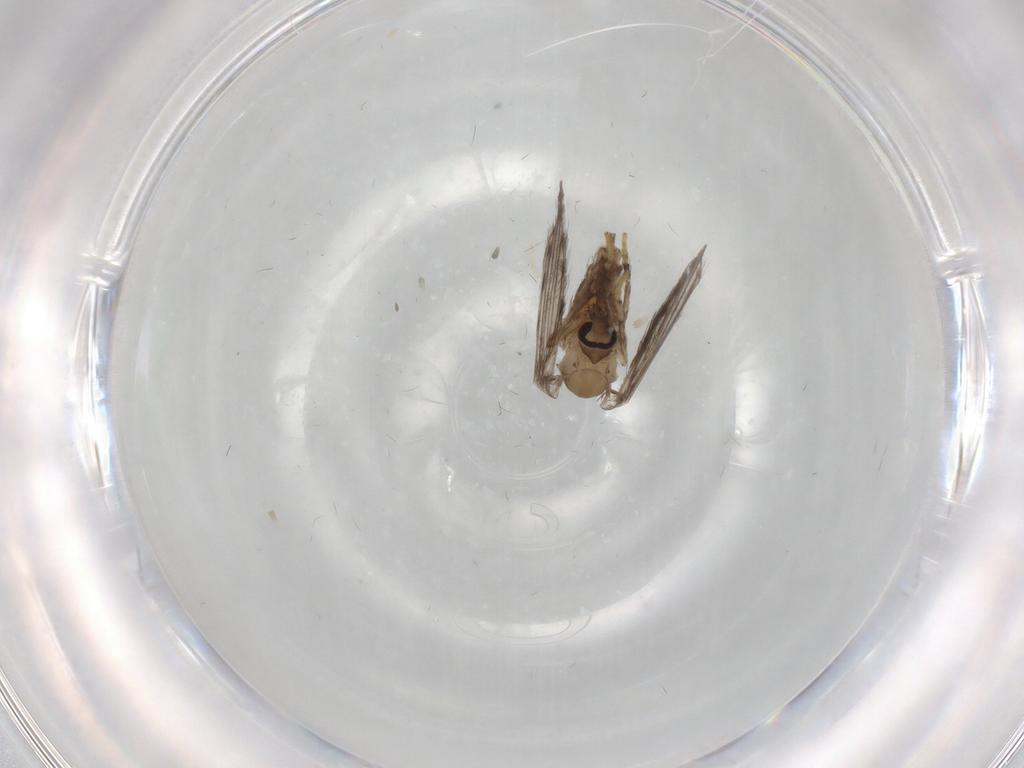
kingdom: Animalia
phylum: Arthropoda
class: Insecta
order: Diptera
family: Psychodidae
